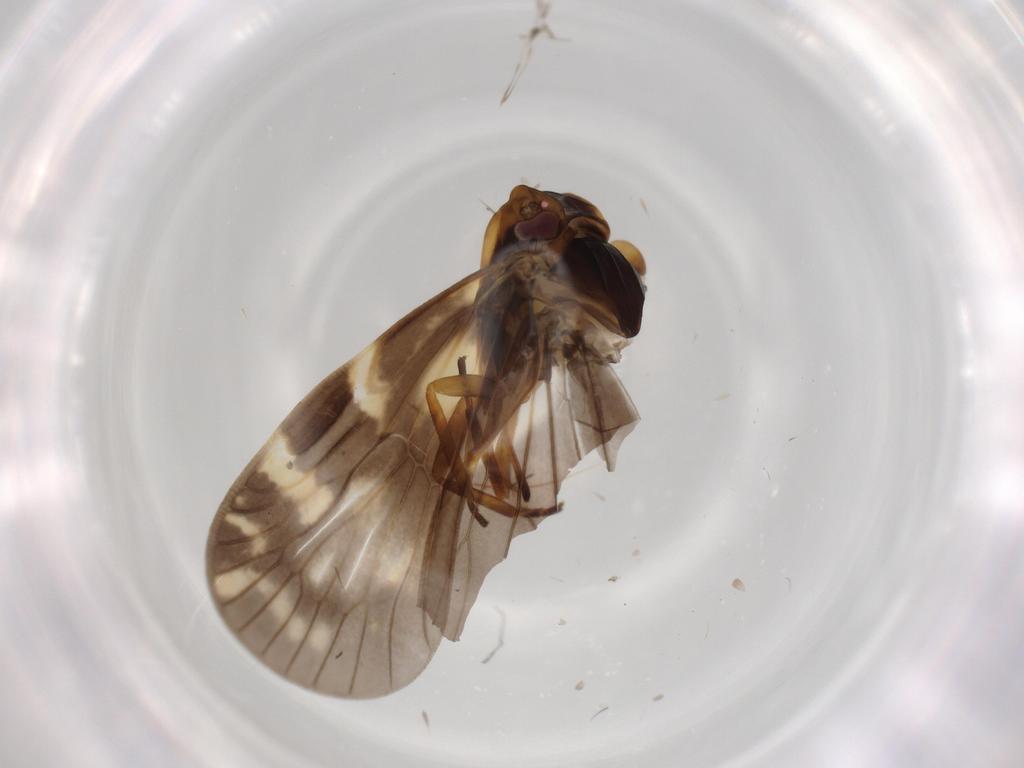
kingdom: Animalia
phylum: Arthropoda
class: Insecta
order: Hemiptera
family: Cixiidae
